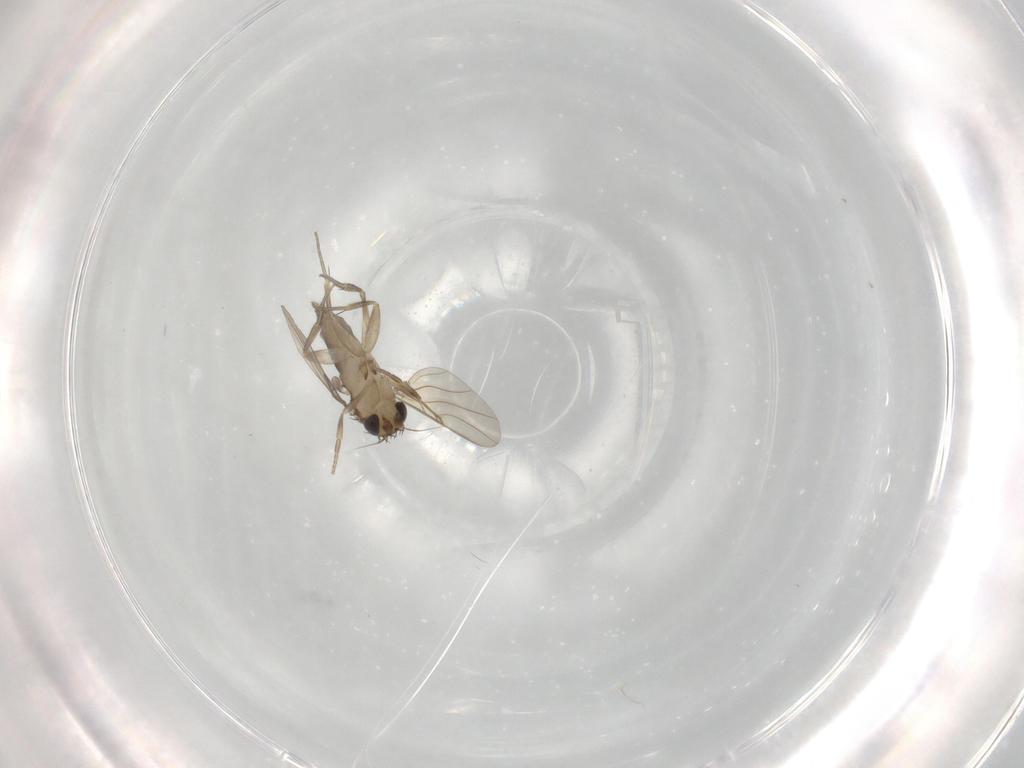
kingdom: Animalia
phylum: Arthropoda
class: Insecta
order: Diptera
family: Phoridae
